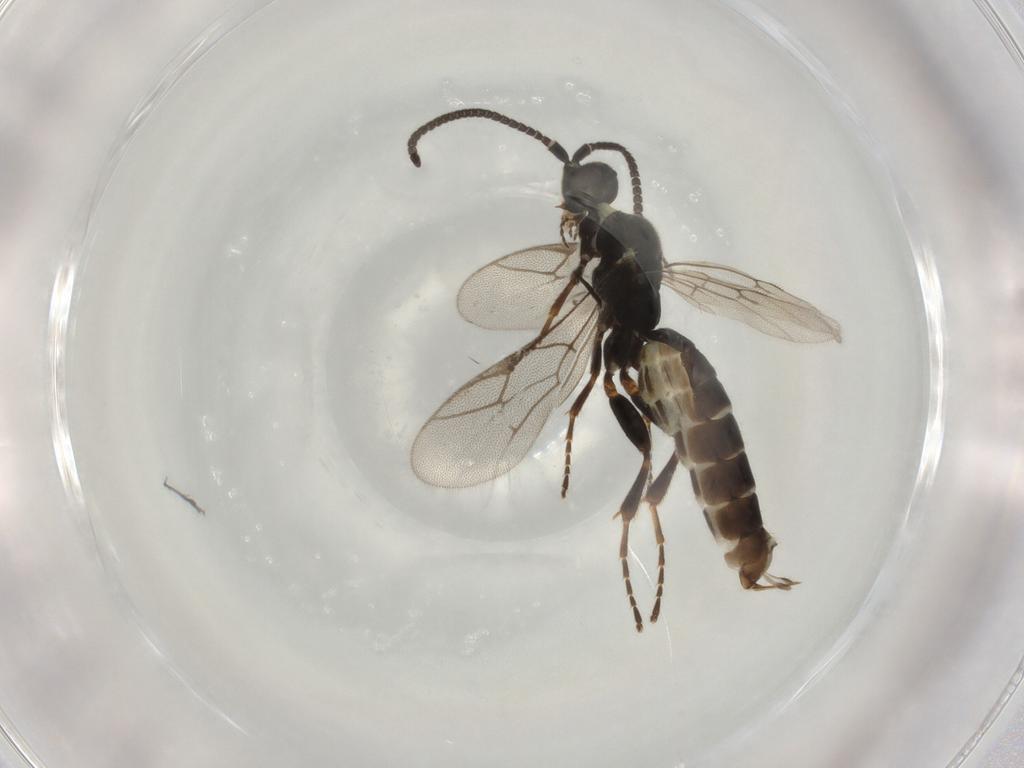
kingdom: Animalia
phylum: Arthropoda
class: Insecta
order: Hymenoptera
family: Ichneumonidae
